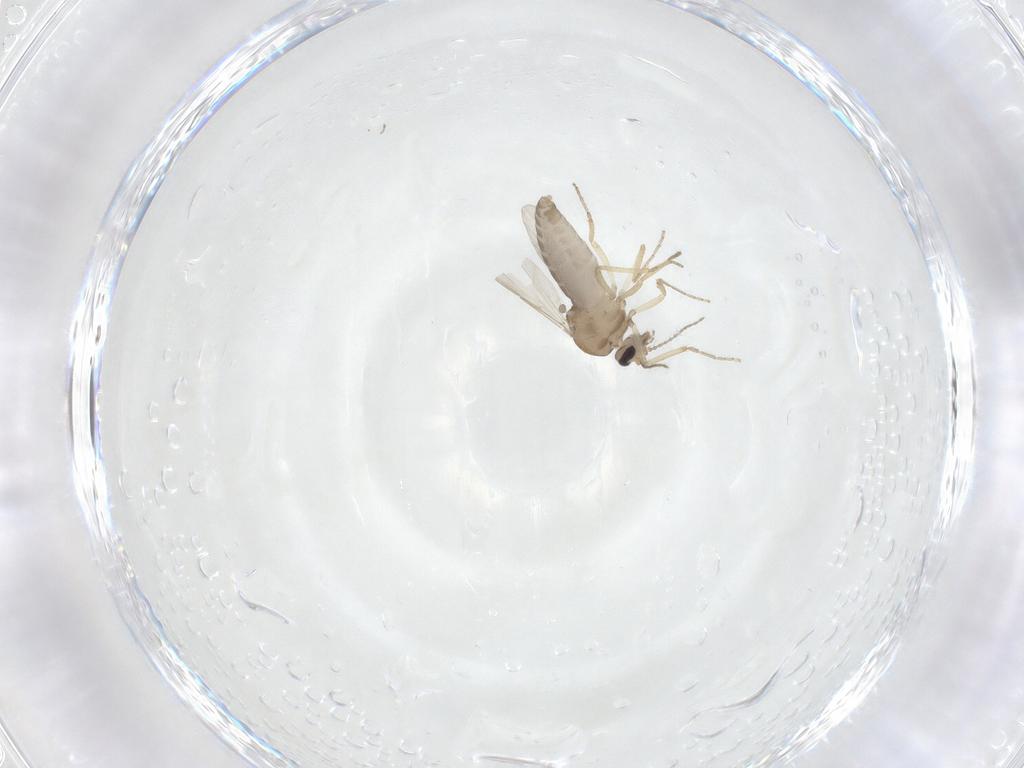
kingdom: Animalia
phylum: Arthropoda
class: Insecta
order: Diptera
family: Ceratopogonidae
